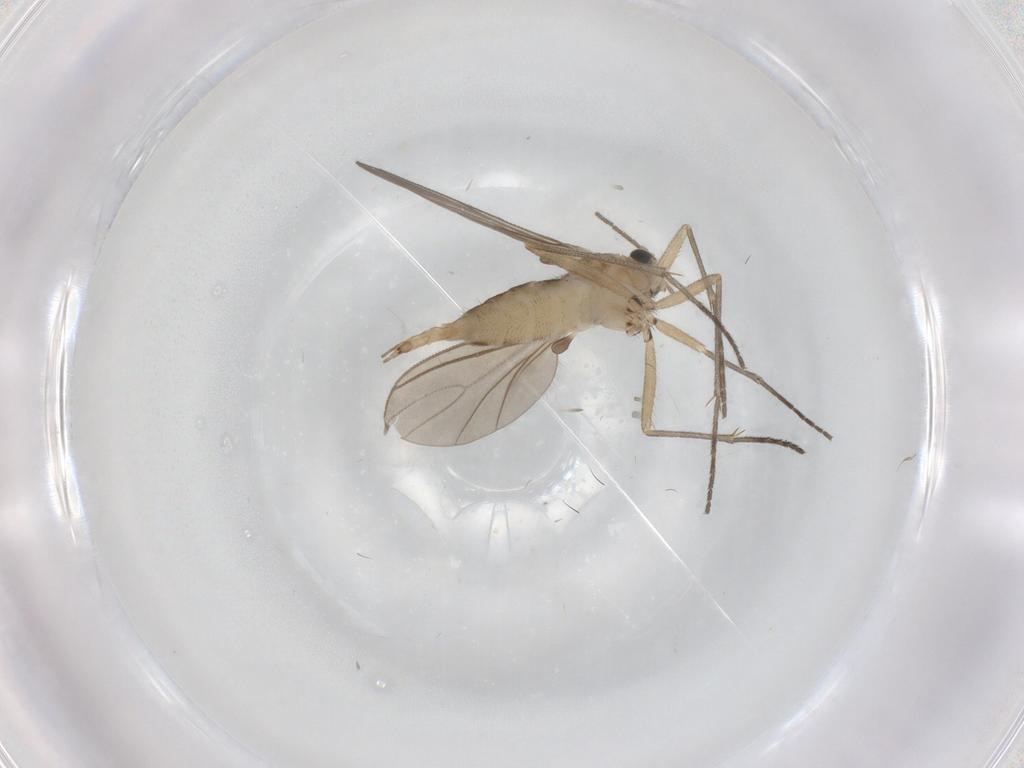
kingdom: Animalia
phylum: Arthropoda
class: Insecta
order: Diptera
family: Sciaridae
